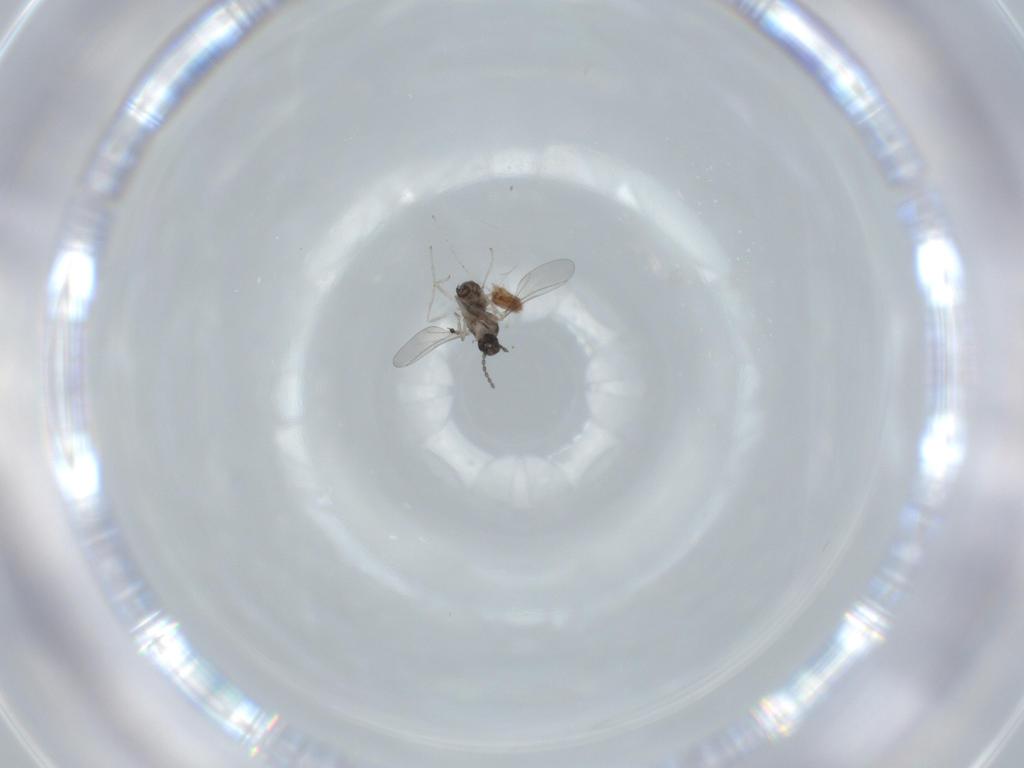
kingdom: Animalia
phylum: Arthropoda
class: Insecta
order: Diptera
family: Cecidomyiidae
